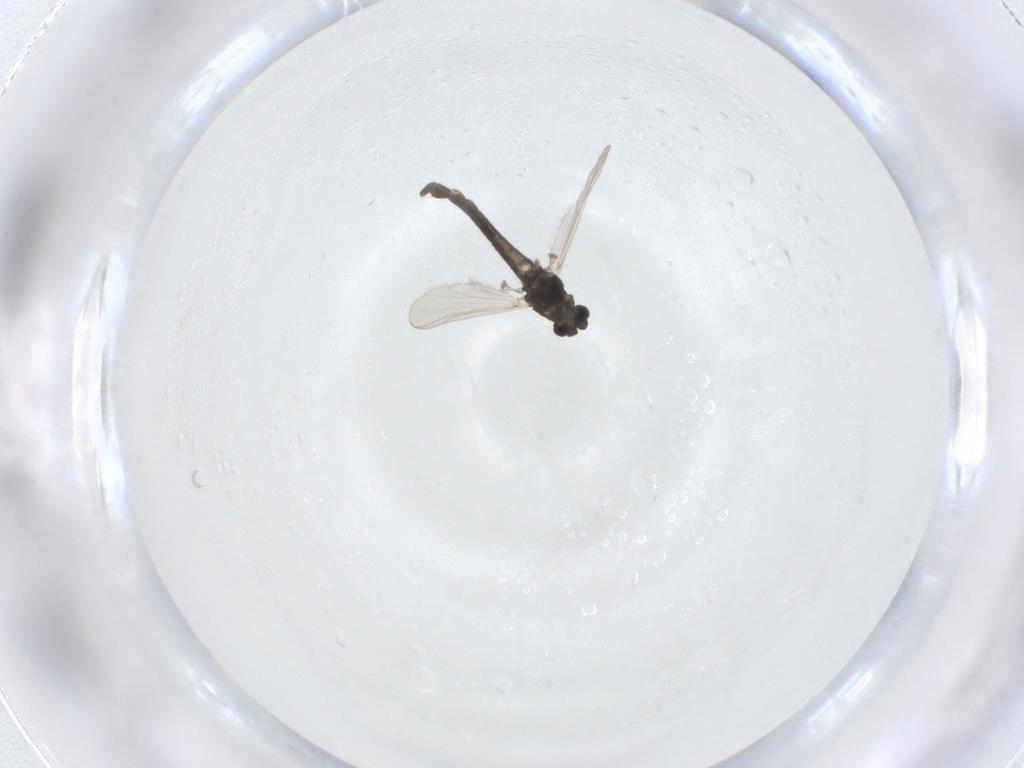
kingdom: Animalia
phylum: Arthropoda
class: Insecta
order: Diptera
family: Chironomidae
